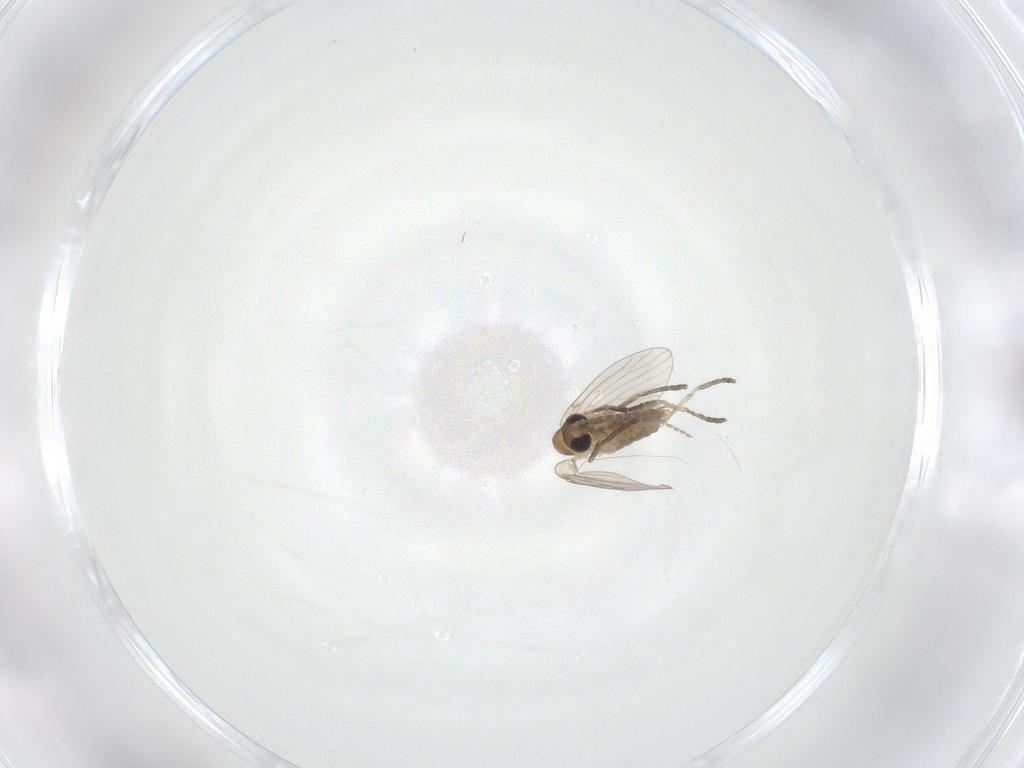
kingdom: Animalia
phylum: Arthropoda
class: Insecta
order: Diptera
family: Psychodidae
